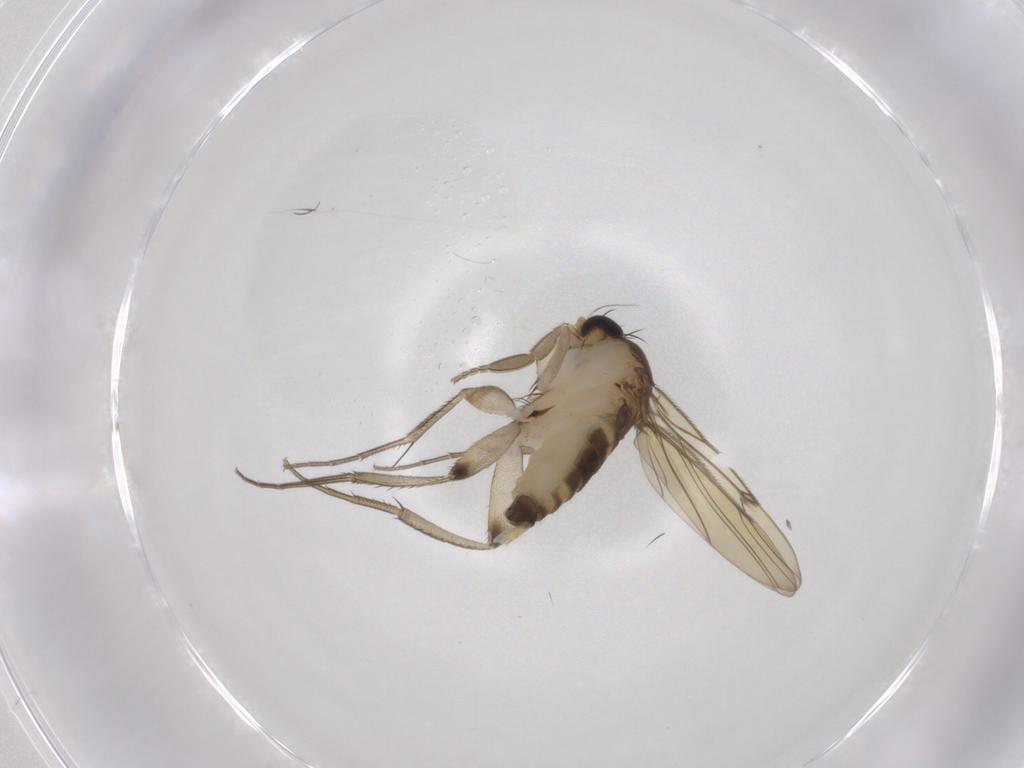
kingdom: Animalia
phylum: Arthropoda
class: Insecta
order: Diptera
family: Phoridae
